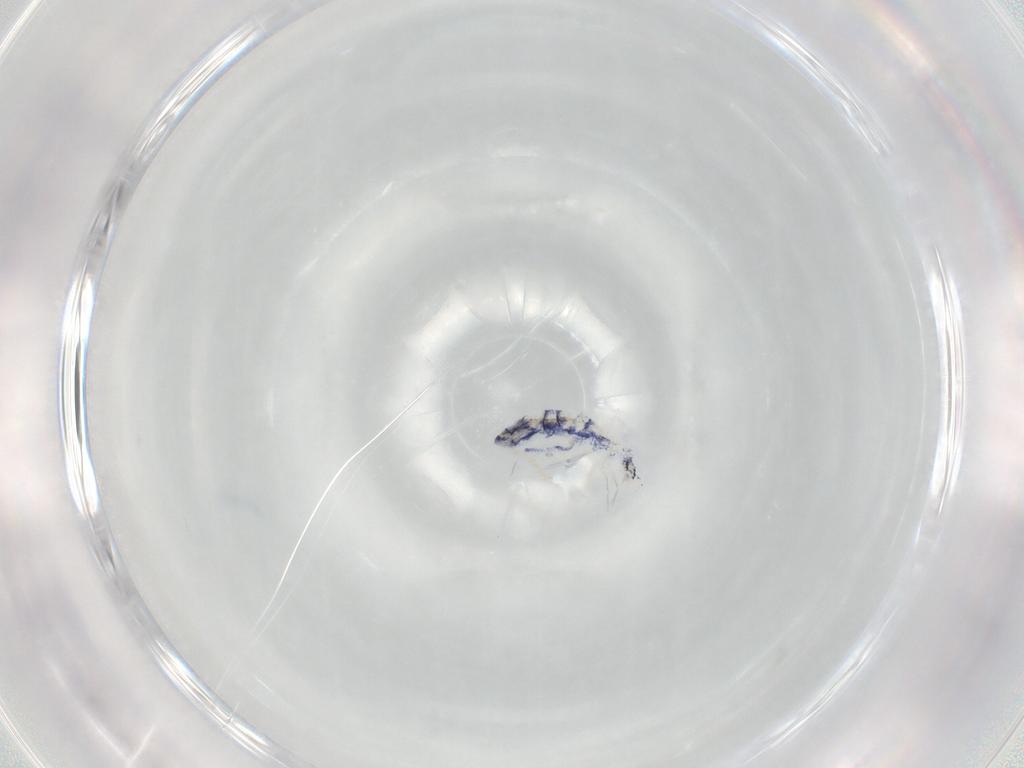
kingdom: Animalia
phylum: Arthropoda
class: Collembola
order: Entomobryomorpha
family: Entomobryidae
